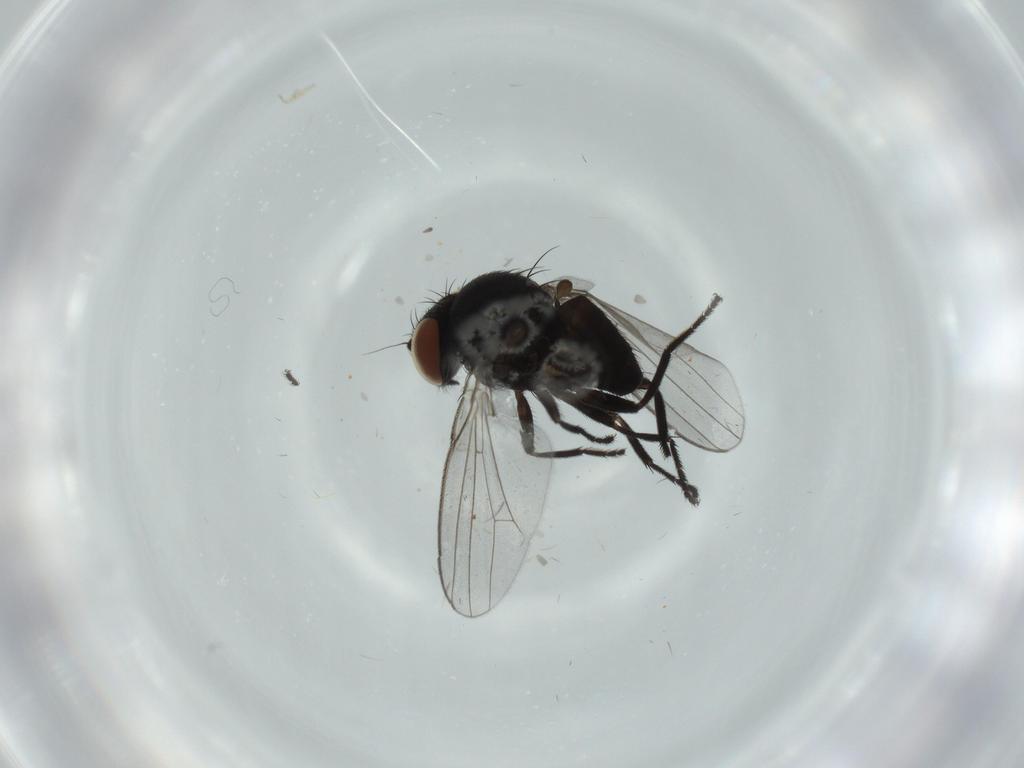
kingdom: Animalia
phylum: Arthropoda
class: Insecta
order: Diptera
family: Milichiidae
